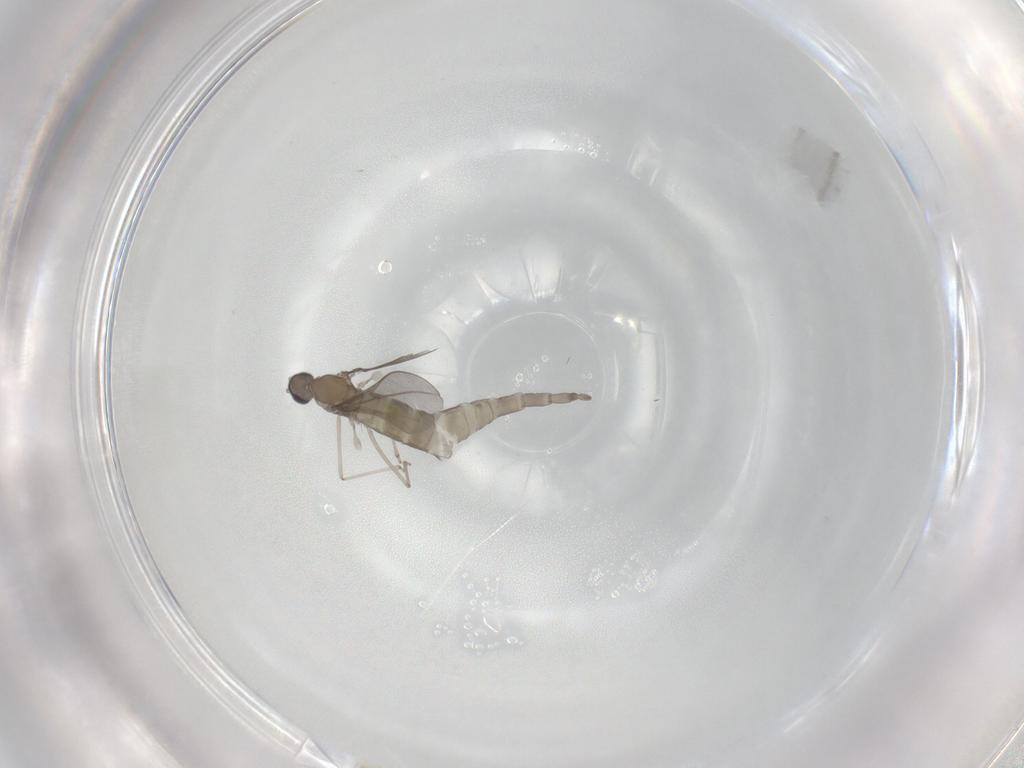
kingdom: Animalia
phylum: Arthropoda
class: Insecta
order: Diptera
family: Cecidomyiidae
